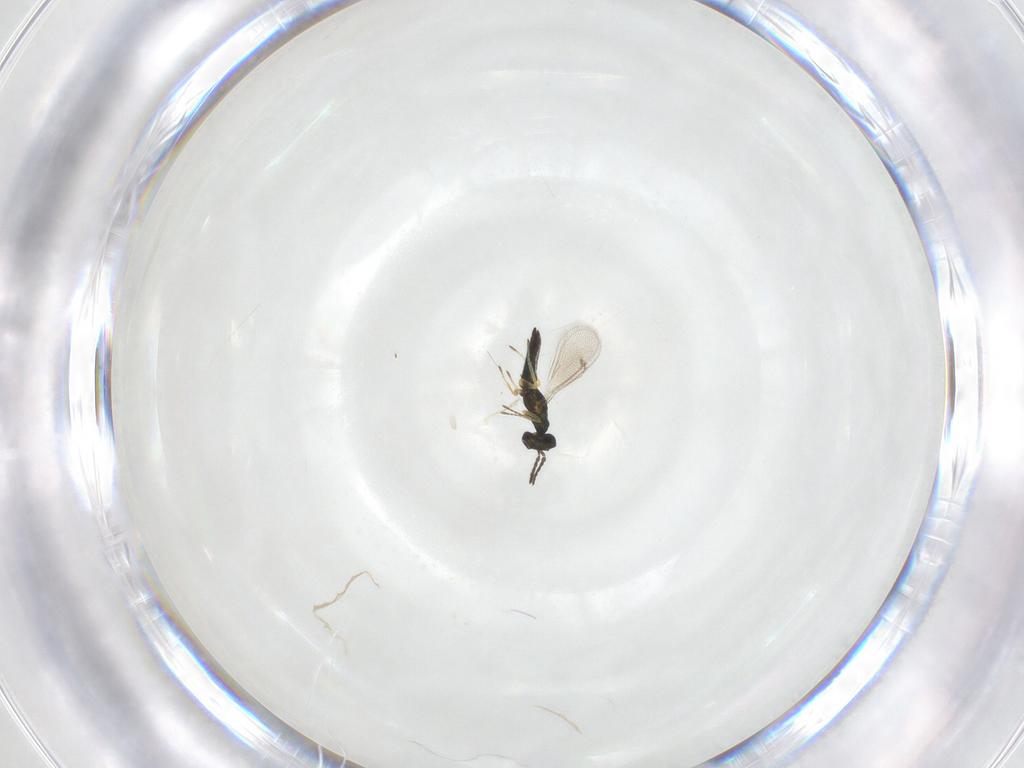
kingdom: Animalia
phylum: Arthropoda
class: Insecta
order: Hymenoptera
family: Eulophidae
